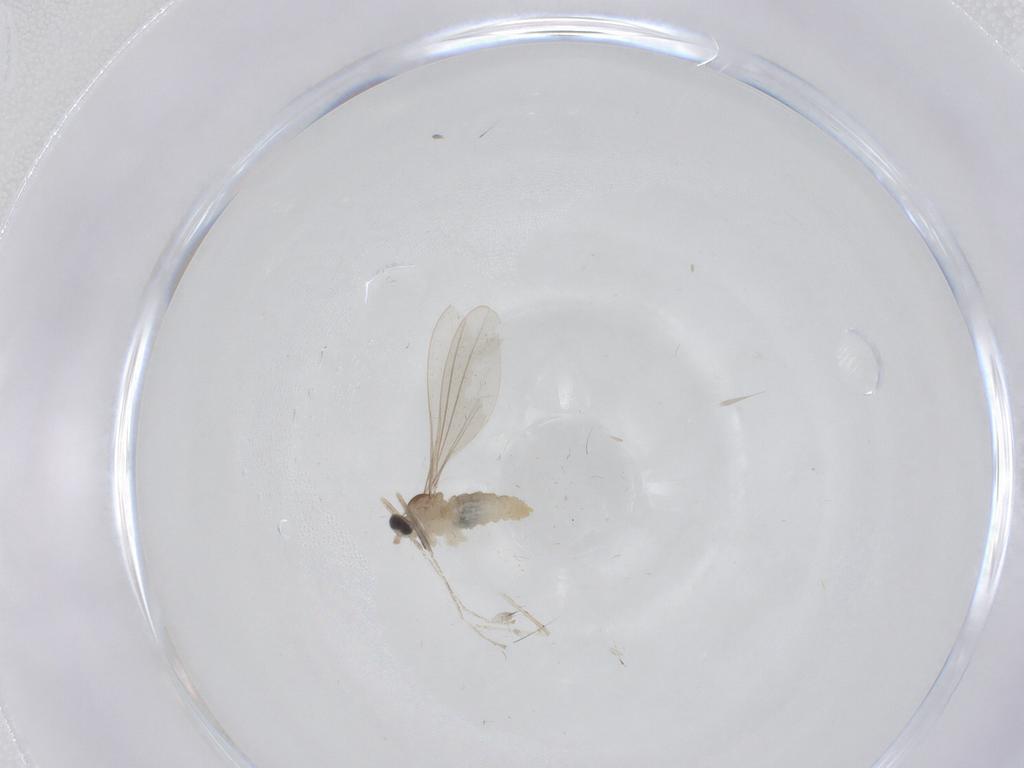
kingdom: Animalia
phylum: Arthropoda
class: Insecta
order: Diptera
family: Cecidomyiidae
